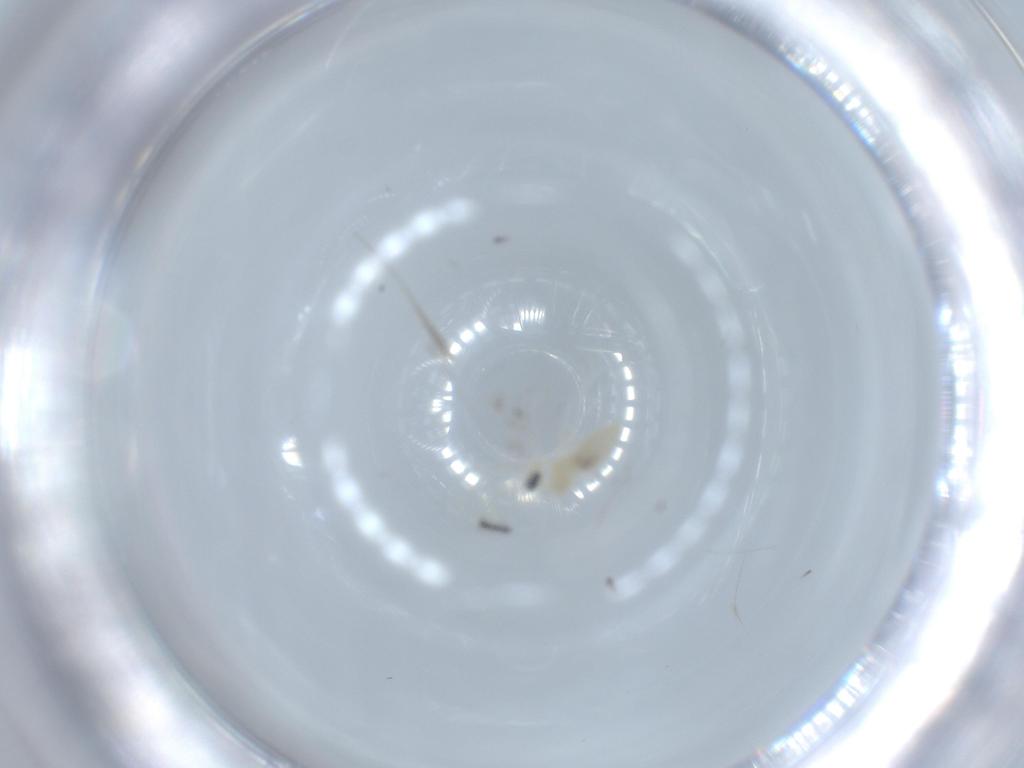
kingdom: Animalia
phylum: Arthropoda
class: Insecta
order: Diptera
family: Cecidomyiidae
